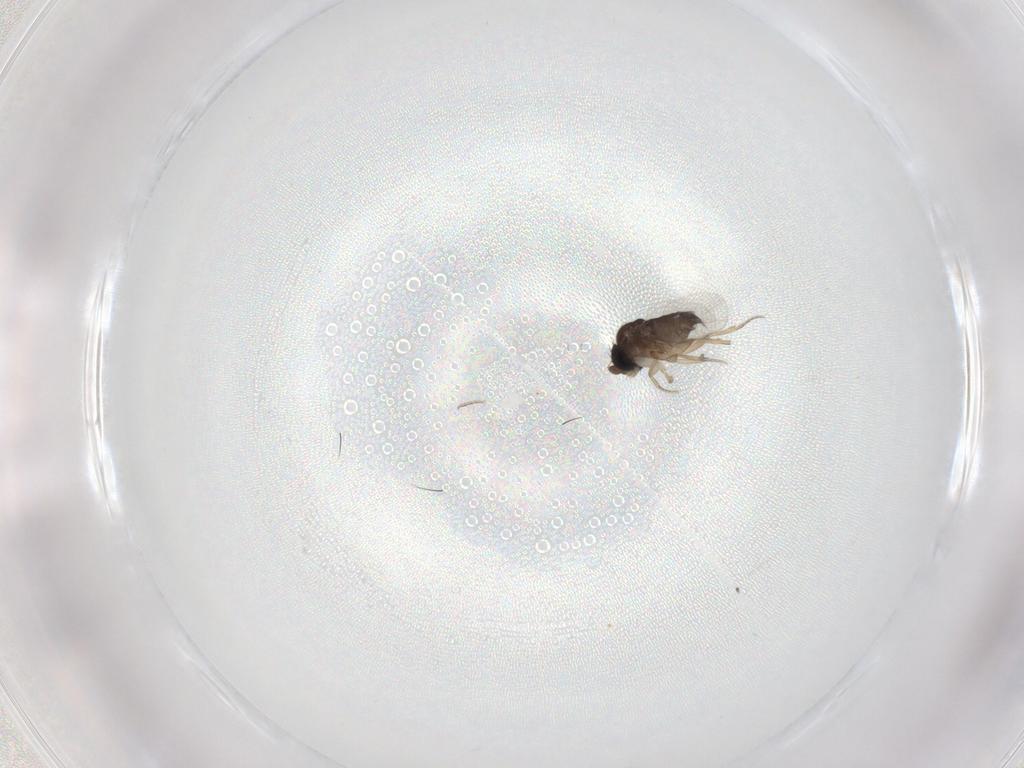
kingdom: Animalia
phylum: Arthropoda
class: Insecta
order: Diptera
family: Phoridae
